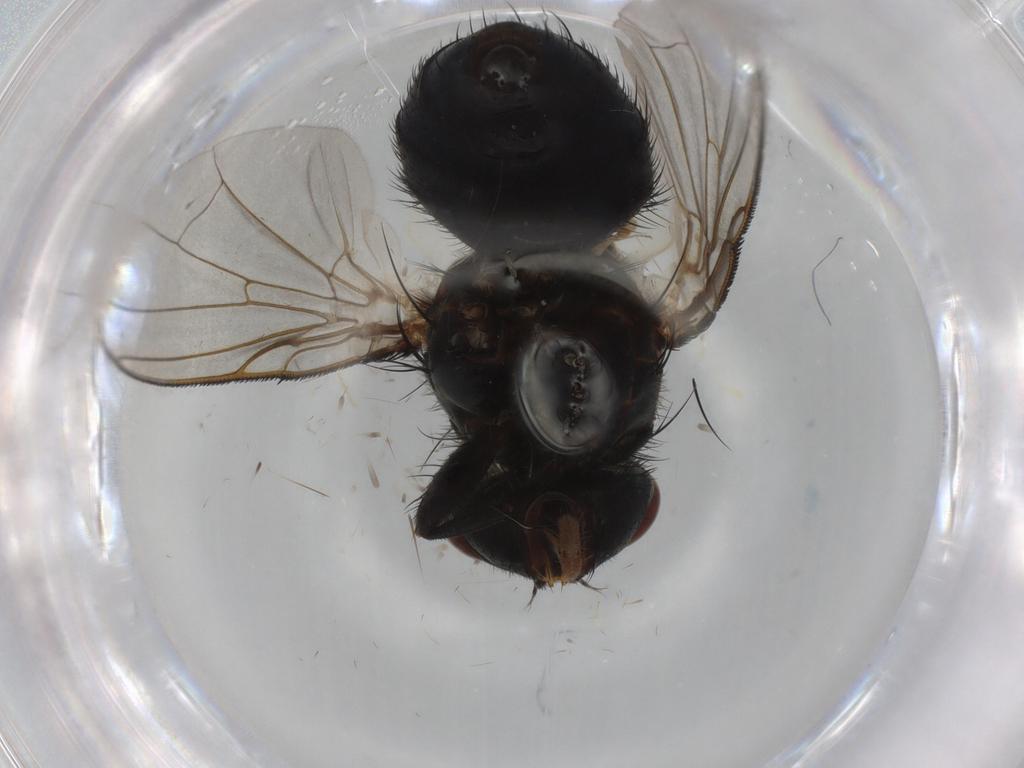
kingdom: Animalia
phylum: Arthropoda
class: Insecta
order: Diptera
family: Calliphoridae
